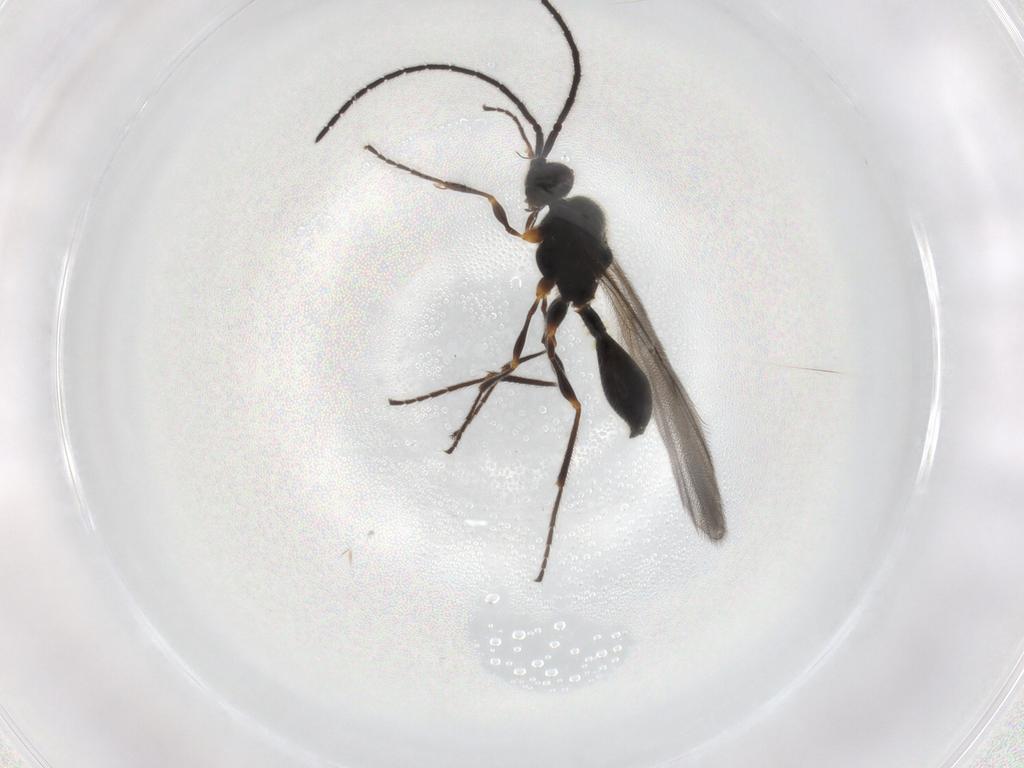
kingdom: Animalia
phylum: Arthropoda
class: Insecta
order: Hymenoptera
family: Diapriidae
